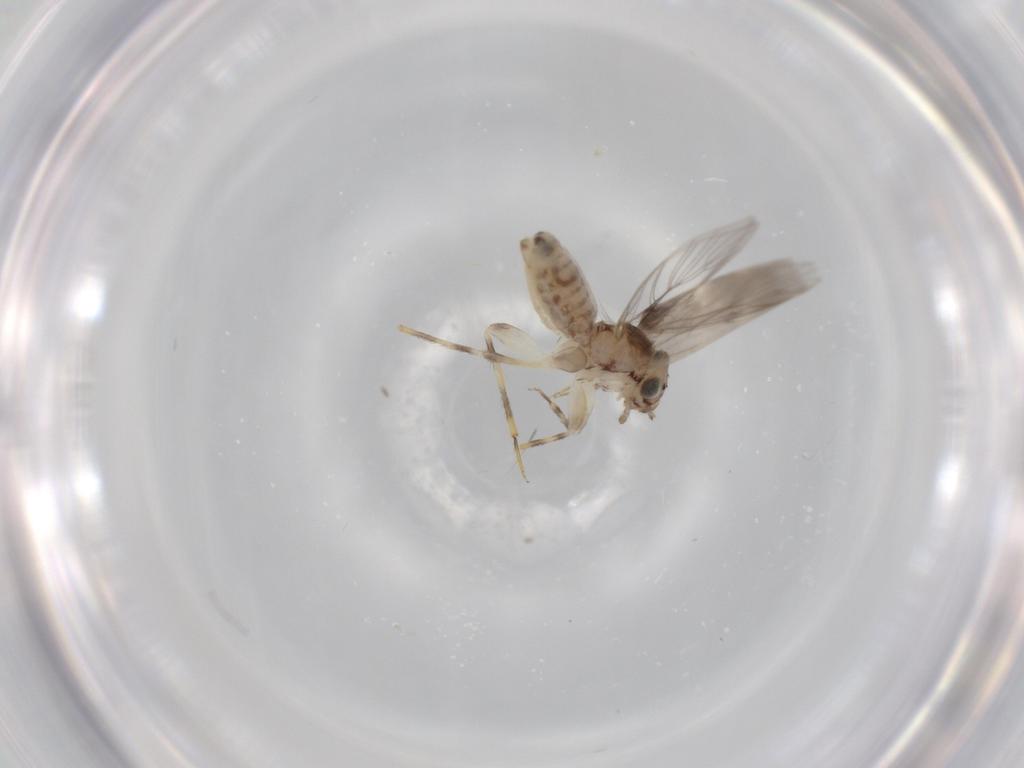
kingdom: Animalia
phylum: Arthropoda
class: Insecta
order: Psocodea
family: Lepidopsocidae
